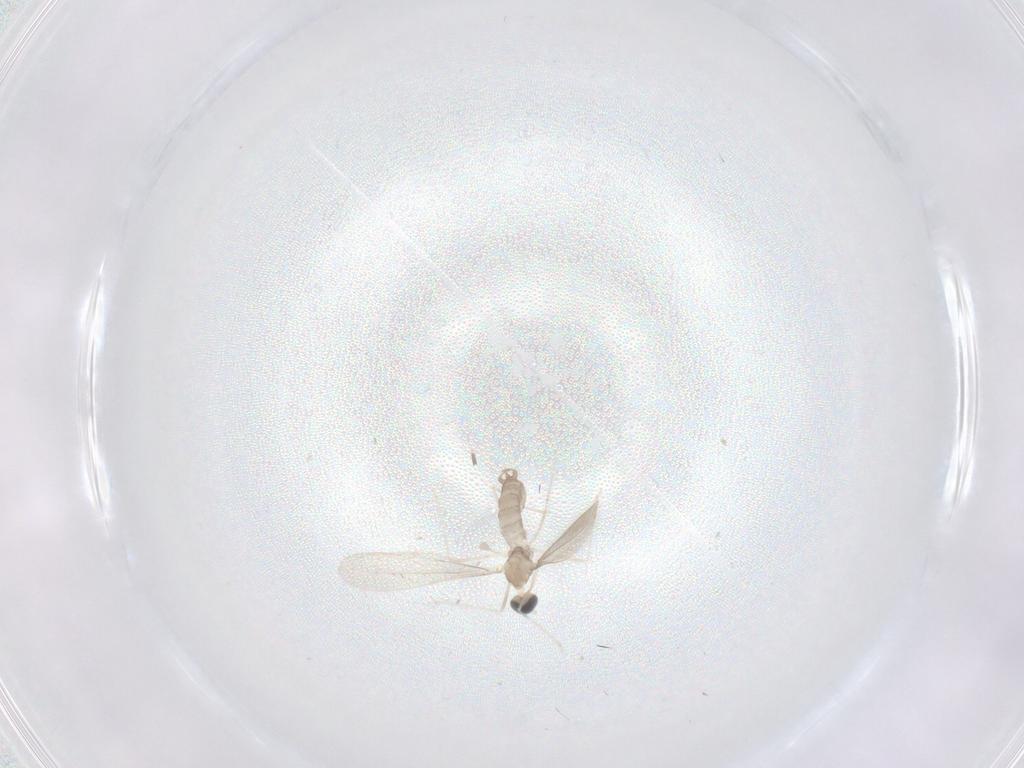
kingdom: Animalia
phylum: Arthropoda
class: Insecta
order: Diptera
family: Cecidomyiidae
